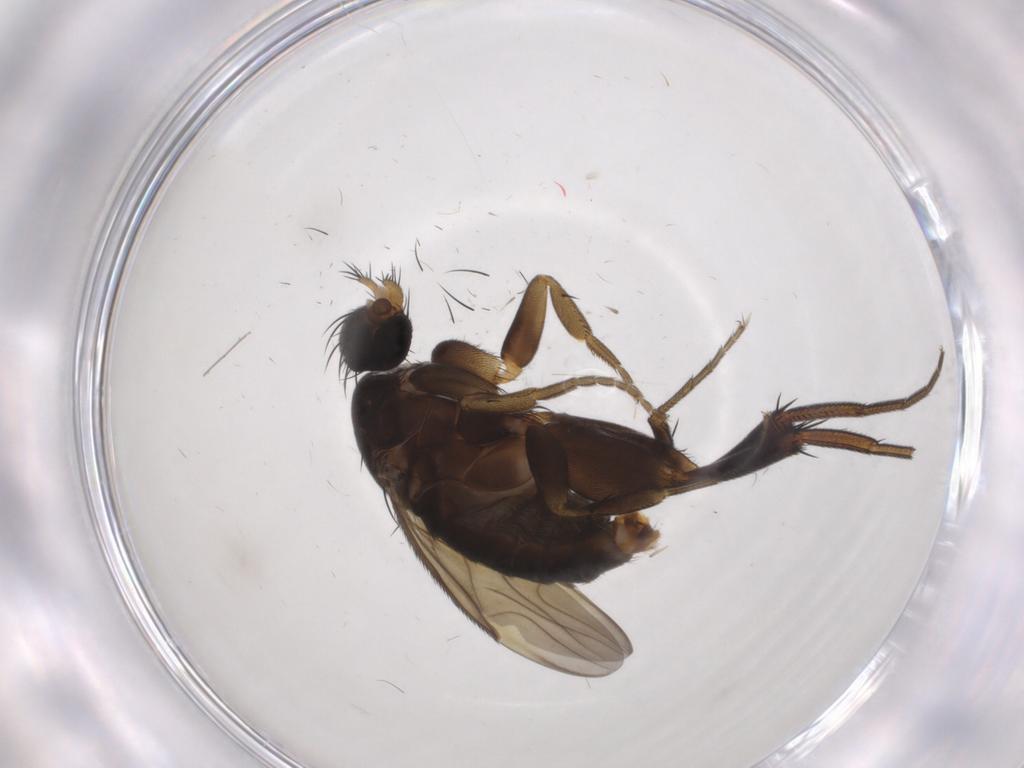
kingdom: Animalia
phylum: Arthropoda
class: Insecta
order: Diptera
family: Phoridae
